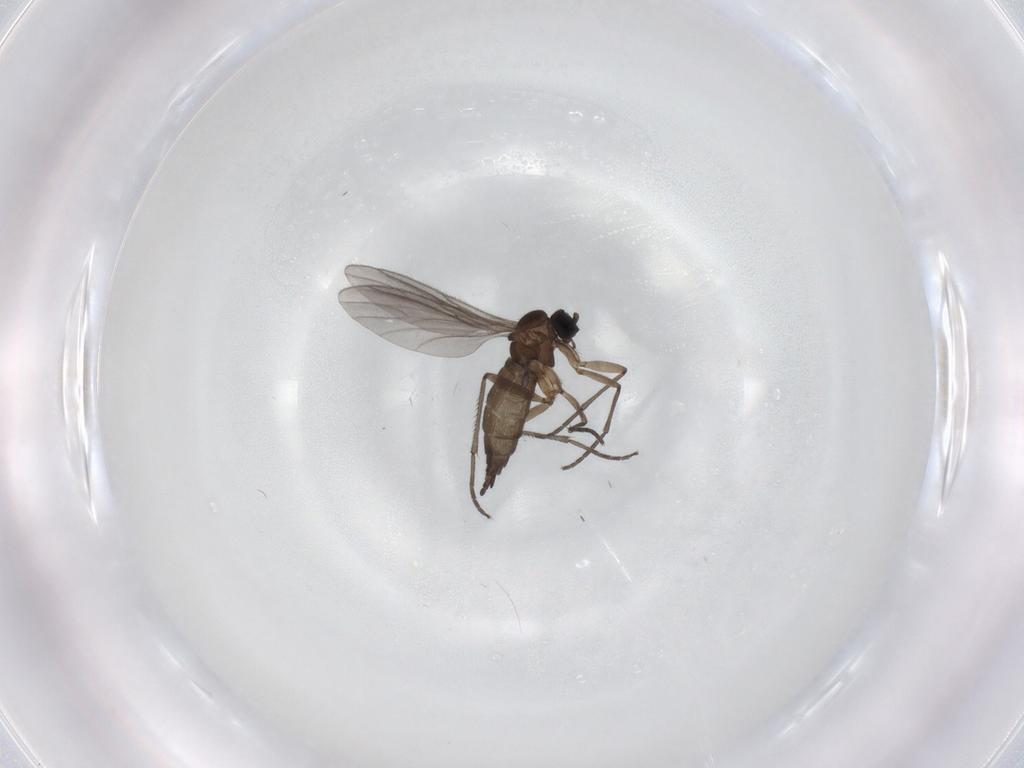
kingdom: Animalia
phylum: Arthropoda
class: Insecta
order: Diptera
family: Sciaridae
